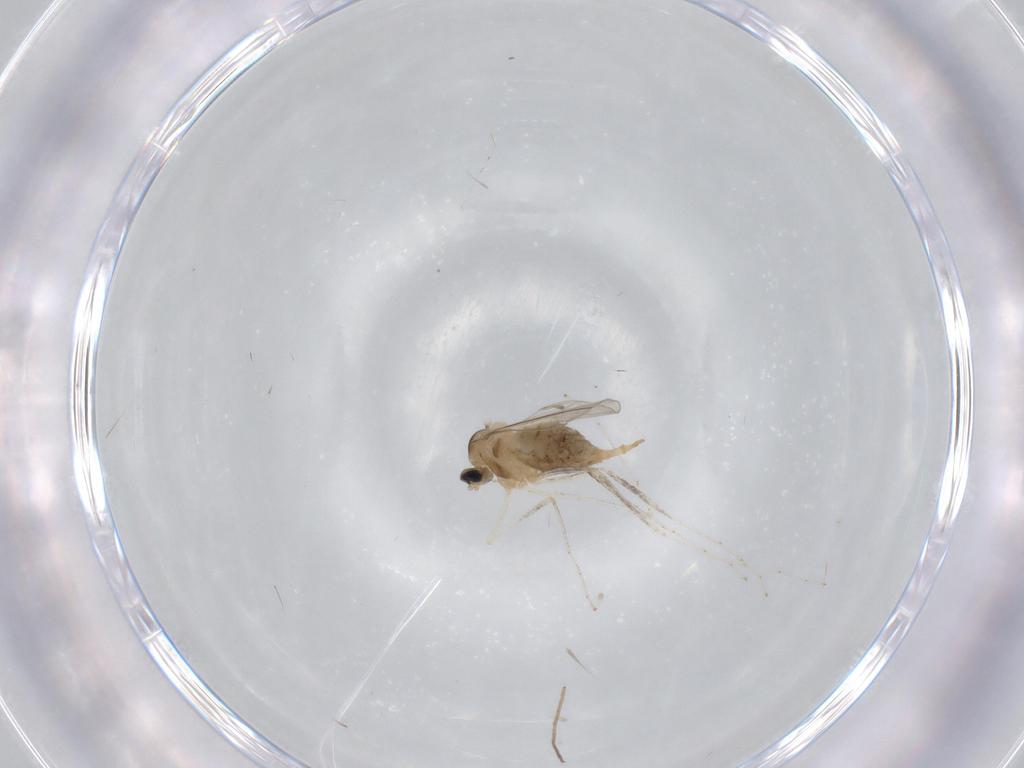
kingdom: Animalia
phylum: Arthropoda
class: Insecta
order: Diptera
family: Cecidomyiidae
